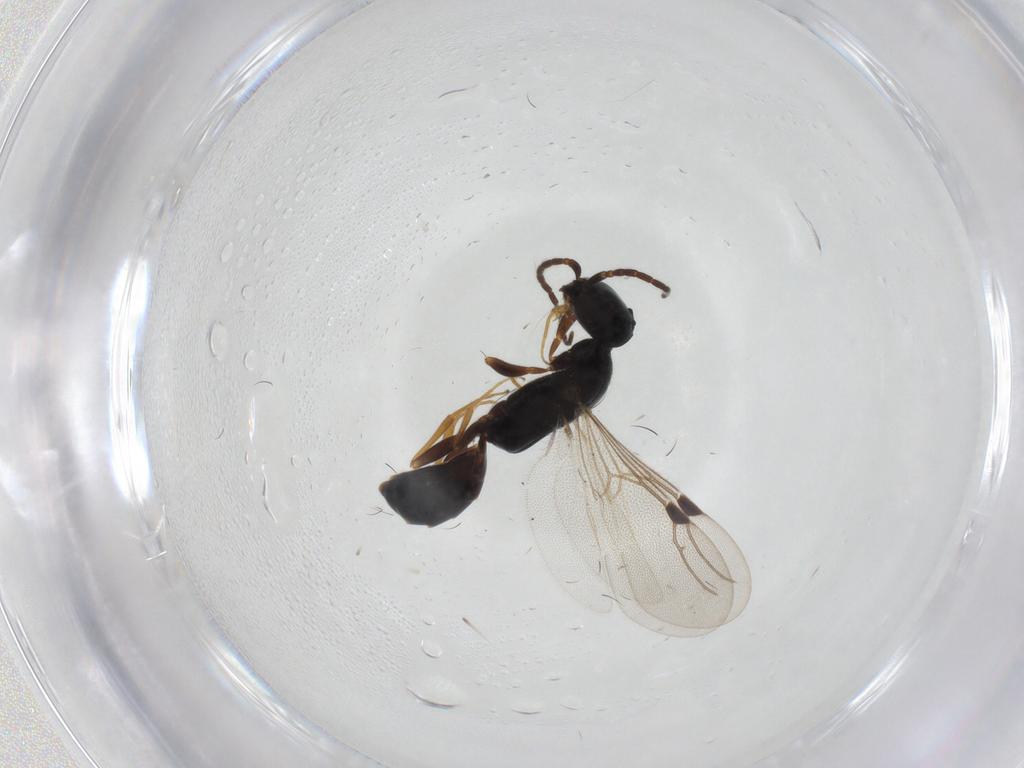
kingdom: Animalia
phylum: Arthropoda
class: Insecta
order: Hymenoptera
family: Bethylidae
